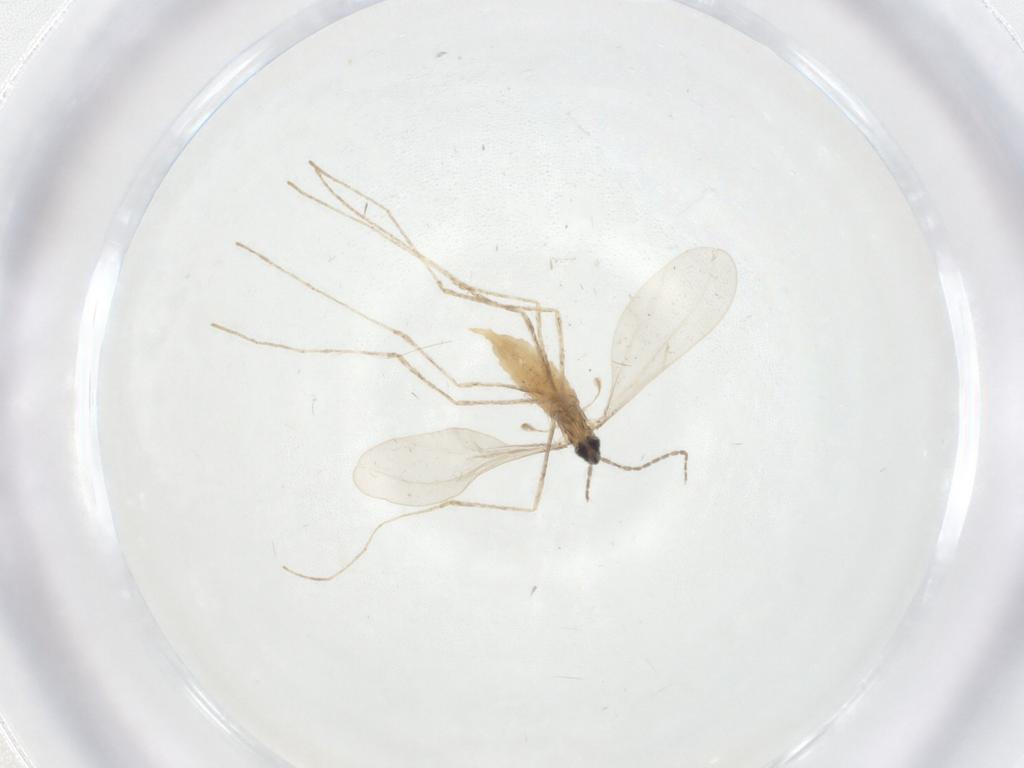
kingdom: Animalia
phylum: Arthropoda
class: Insecta
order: Diptera
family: Cecidomyiidae
